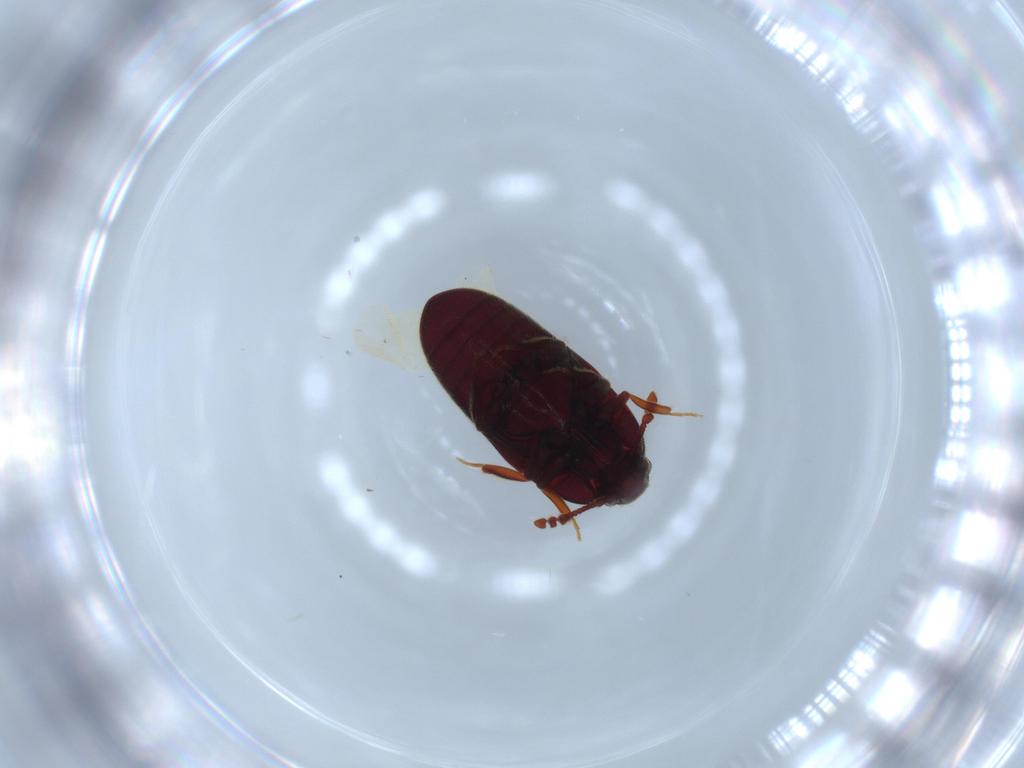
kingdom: Animalia
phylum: Arthropoda
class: Insecta
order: Coleoptera
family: Throscidae
